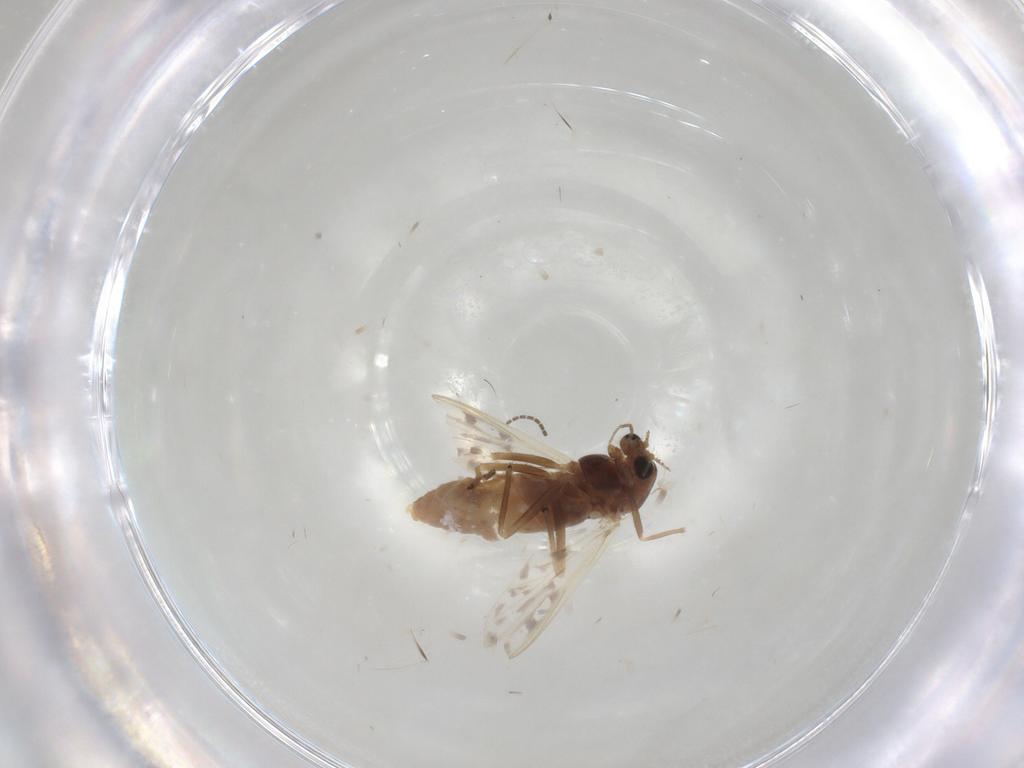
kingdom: Animalia
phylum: Arthropoda
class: Insecta
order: Diptera
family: Chironomidae
